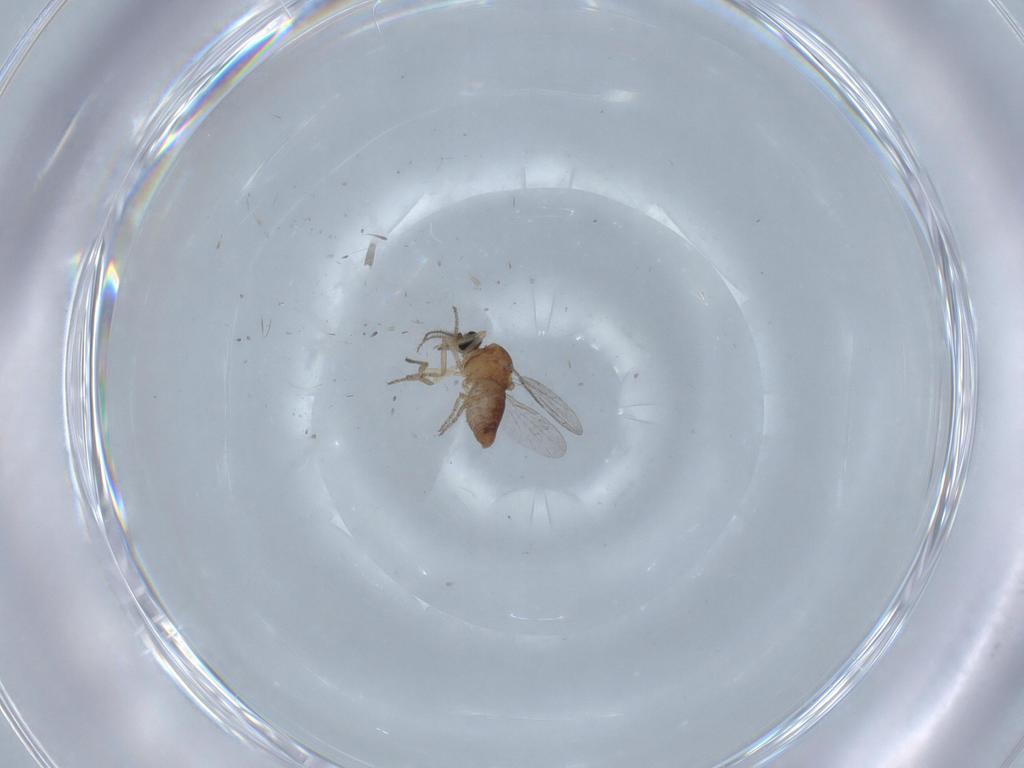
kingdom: Animalia
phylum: Arthropoda
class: Insecta
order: Diptera
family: Ceratopogonidae
